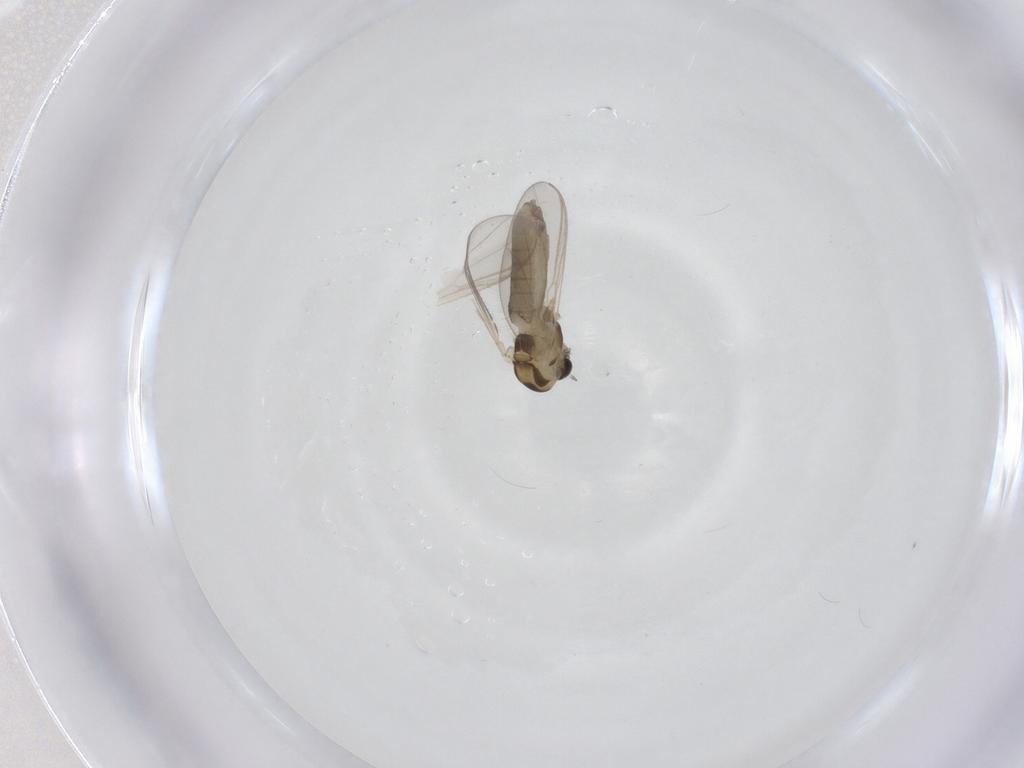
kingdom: Animalia
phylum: Arthropoda
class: Insecta
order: Diptera
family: Chironomidae
